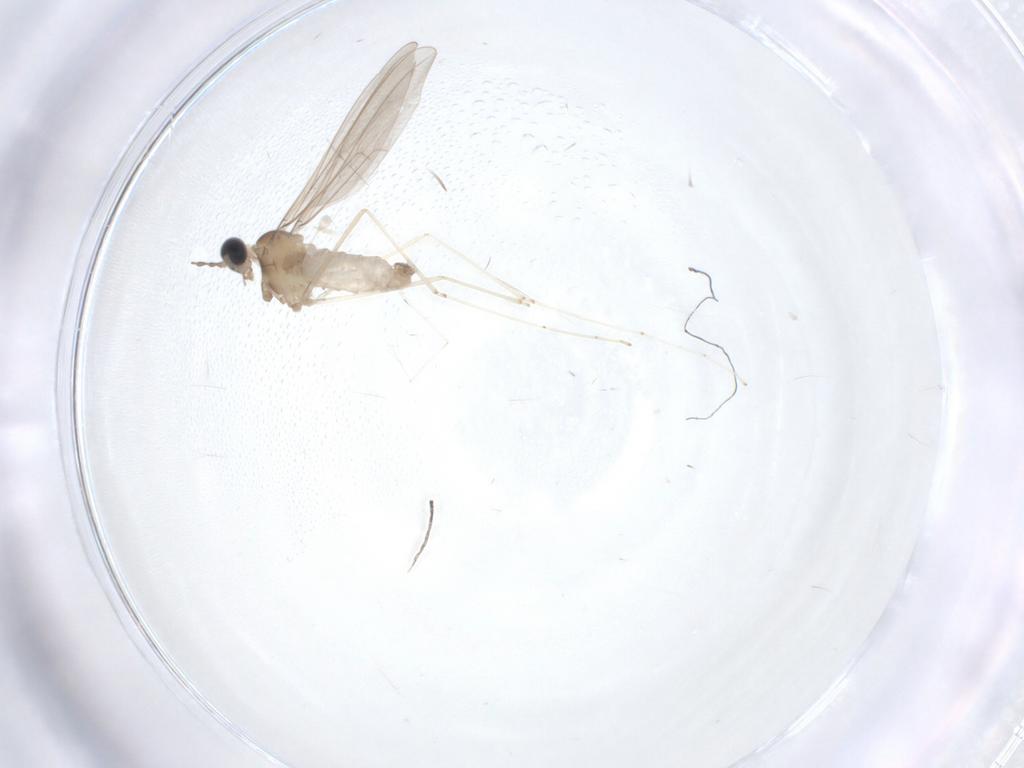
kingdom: Animalia
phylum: Arthropoda
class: Insecta
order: Diptera
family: Cecidomyiidae
